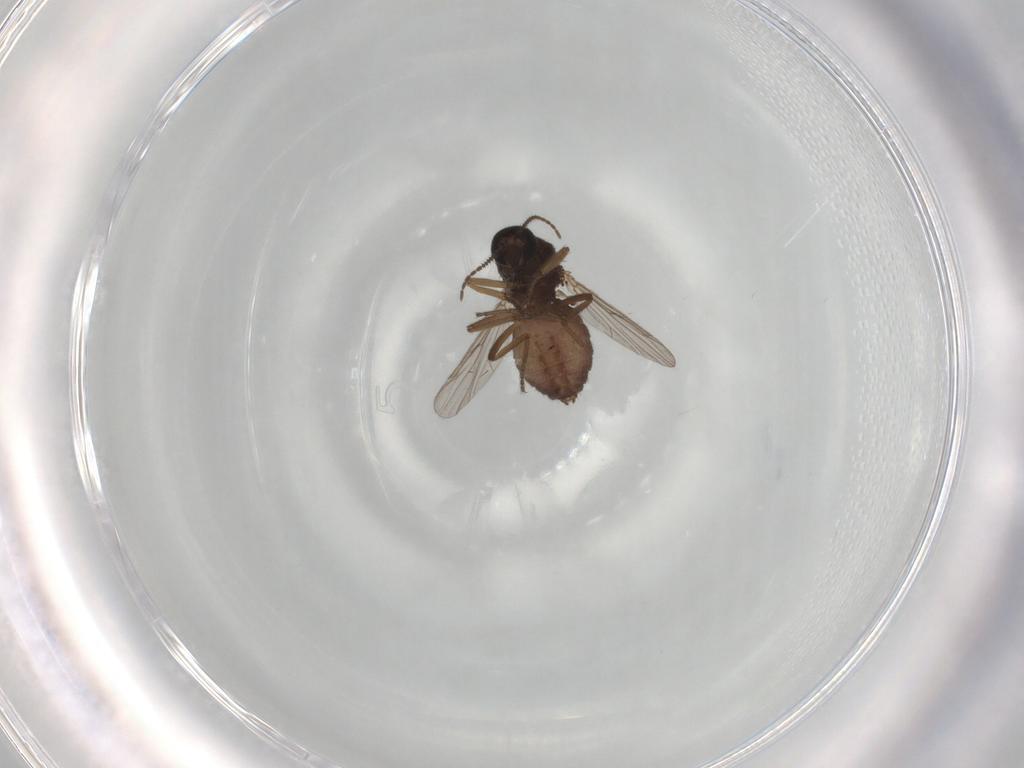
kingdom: Animalia
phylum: Arthropoda
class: Insecta
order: Diptera
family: Ceratopogonidae
